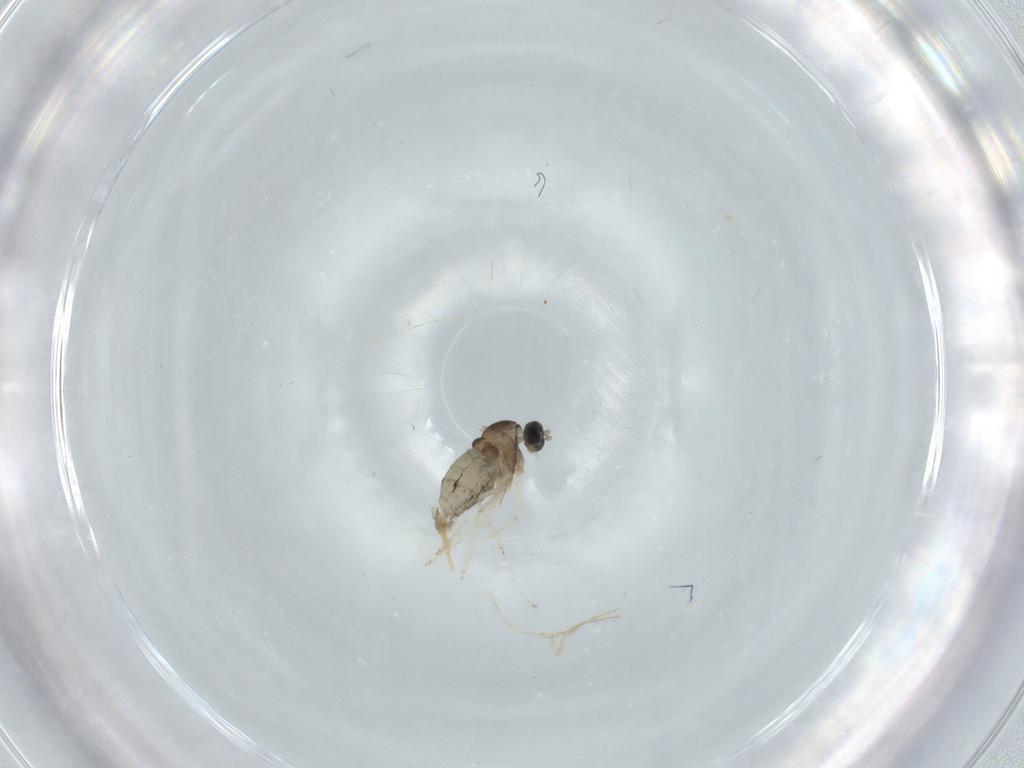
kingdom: Animalia
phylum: Arthropoda
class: Insecta
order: Diptera
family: Cecidomyiidae
